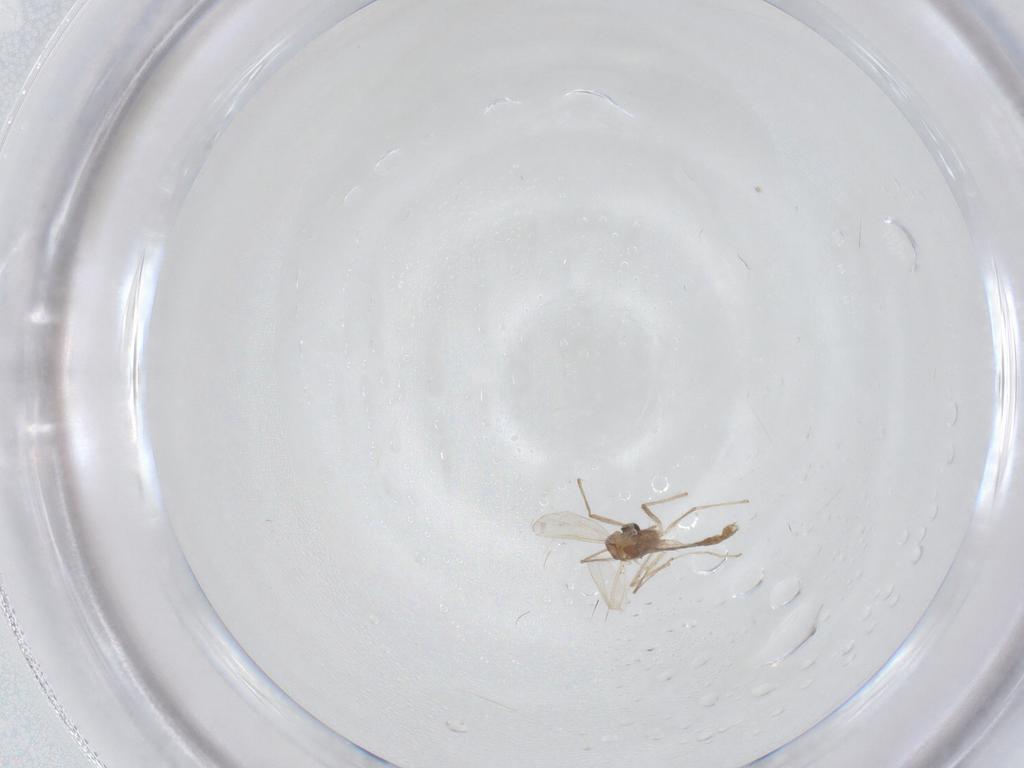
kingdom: Animalia
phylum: Arthropoda
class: Insecta
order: Diptera
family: Chironomidae
